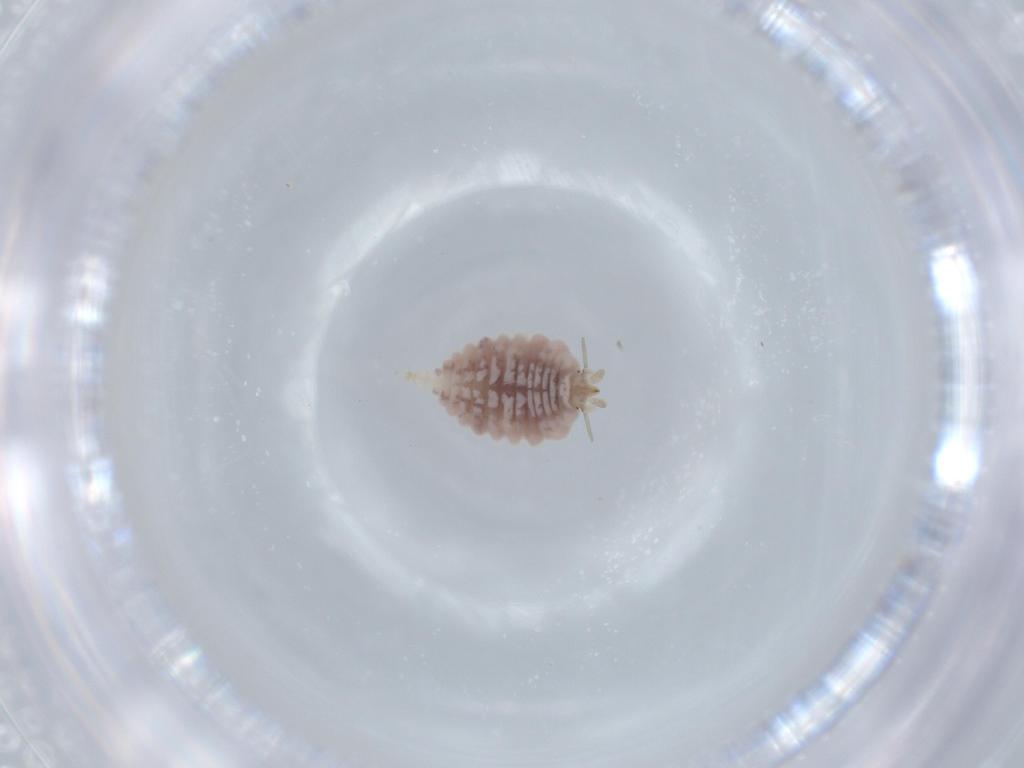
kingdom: Animalia
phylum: Arthropoda
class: Insecta
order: Neuroptera
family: Coniopterygidae
